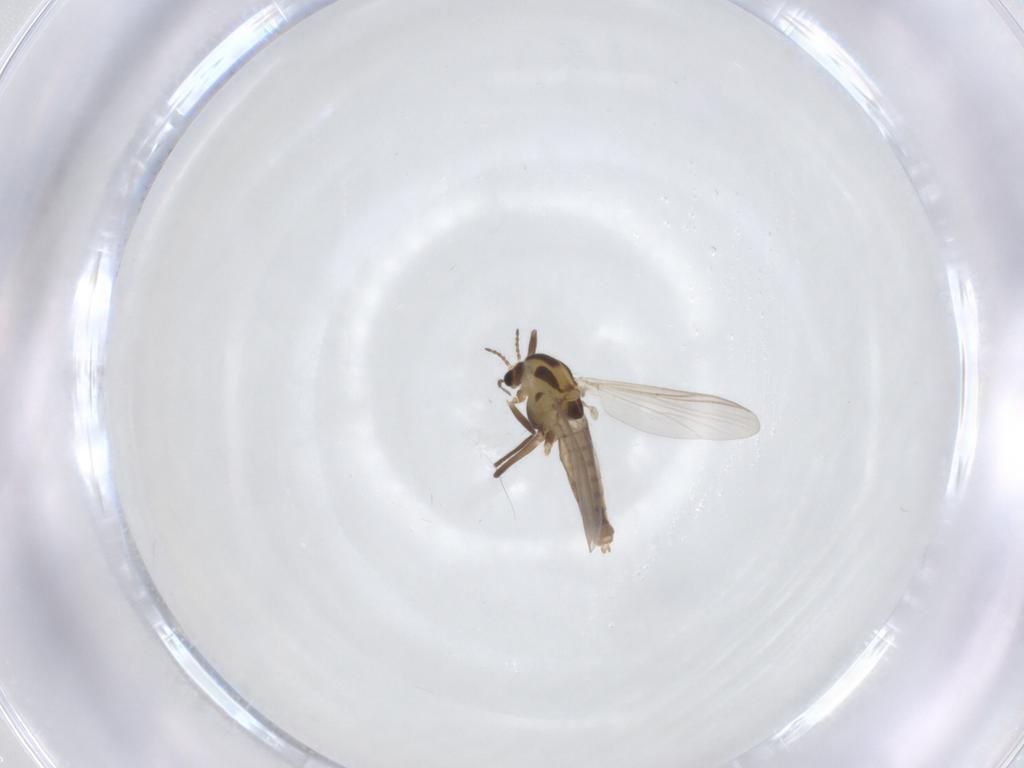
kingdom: Animalia
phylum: Arthropoda
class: Insecta
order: Diptera
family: Chironomidae
